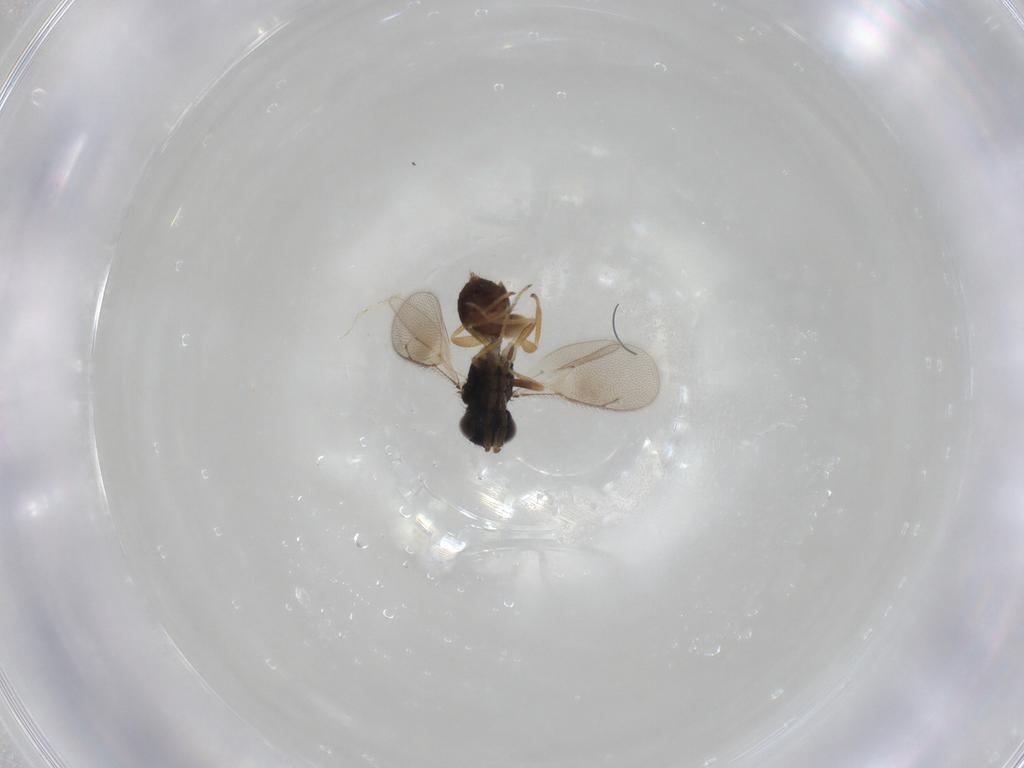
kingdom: Animalia
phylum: Arthropoda
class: Insecta
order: Hymenoptera
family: Eulophidae
